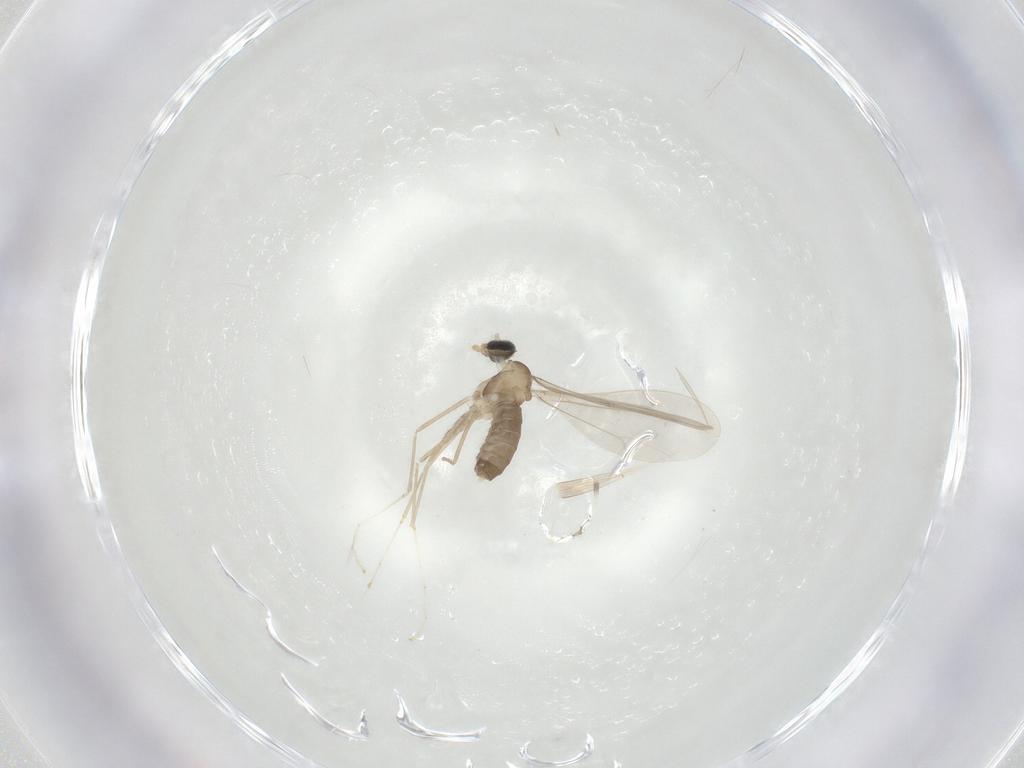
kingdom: Animalia
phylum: Arthropoda
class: Insecta
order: Diptera
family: Cecidomyiidae
